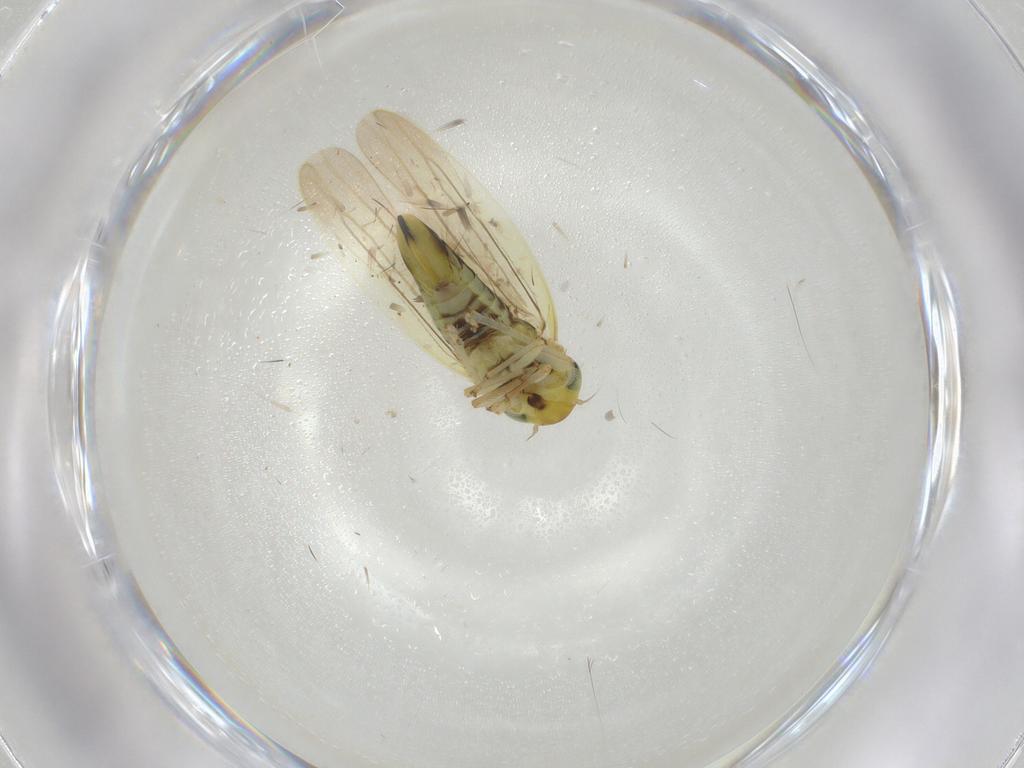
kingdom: Animalia
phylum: Arthropoda
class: Insecta
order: Hemiptera
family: Cicadellidae
